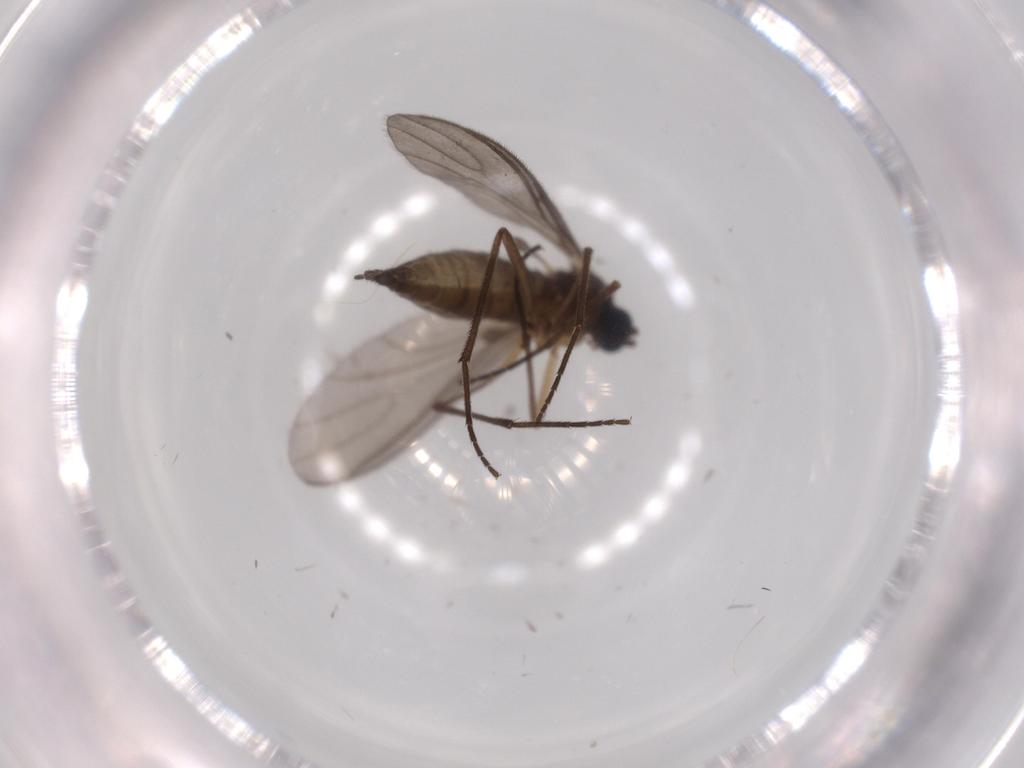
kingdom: Animalia
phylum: Arthropoda
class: Insecta
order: Diptera
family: Sciaridae
